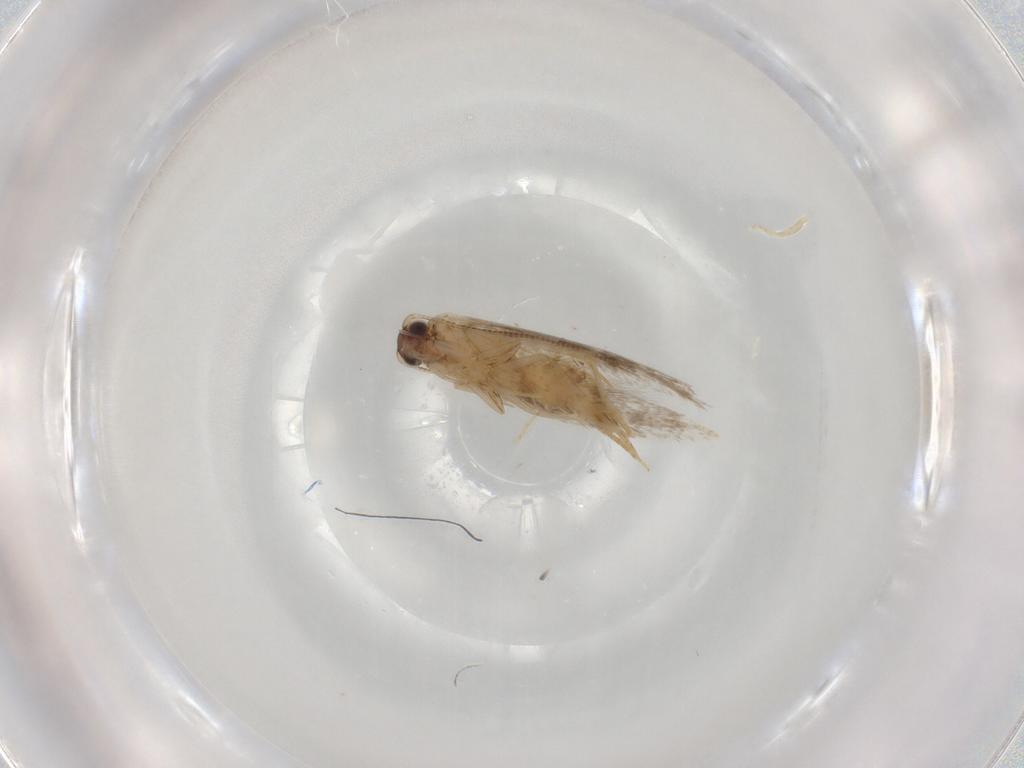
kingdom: Animalia
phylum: Arthropoda
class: Insecta
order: Lepidoptera
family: Tineidae
